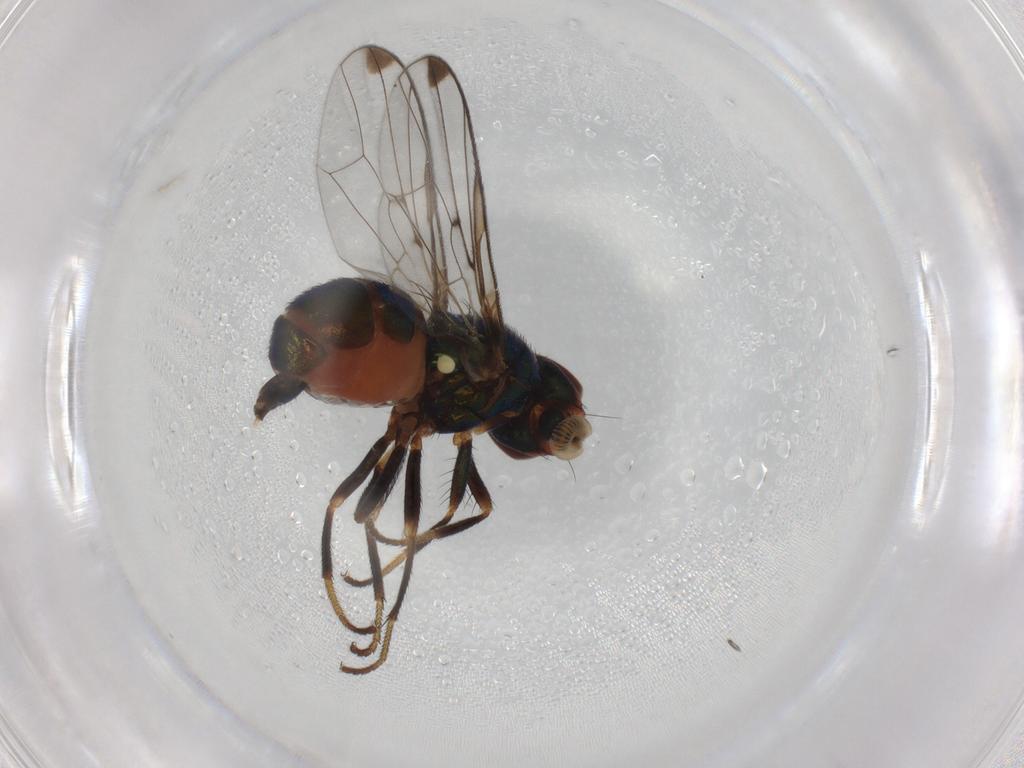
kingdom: Animalia
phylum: Arthropoda
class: Insecta
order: Diptera
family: Platystomatidae
